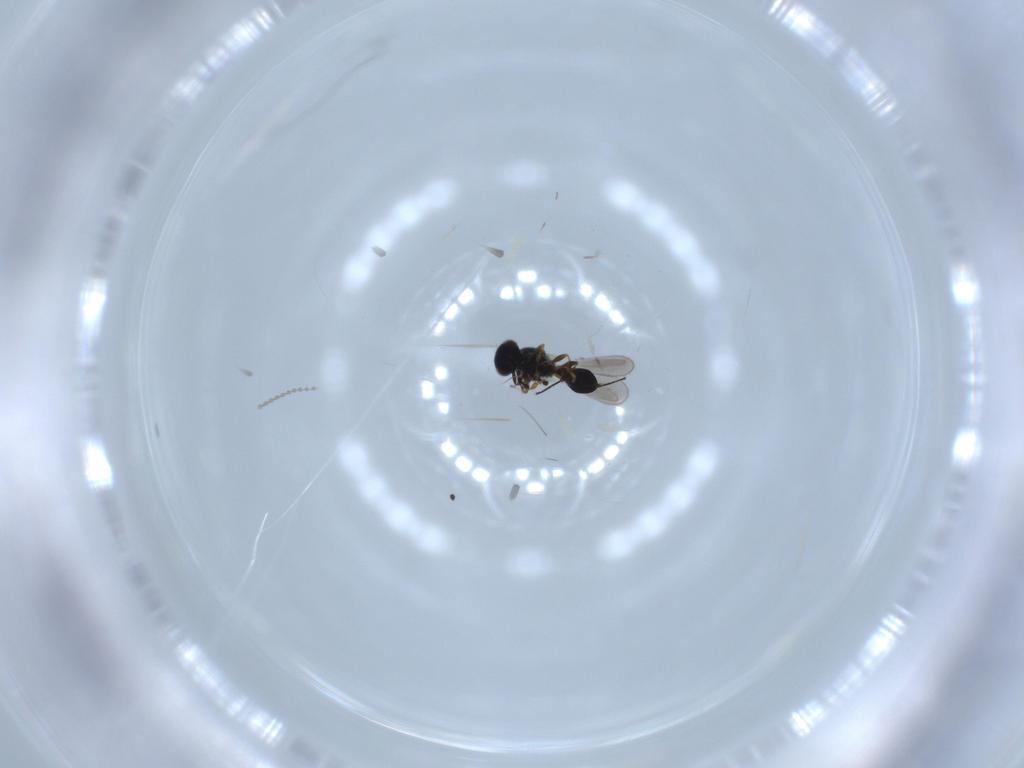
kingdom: Animalia
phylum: Arthropoda
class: Insecta
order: Hymenoptera
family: Platygastridae
